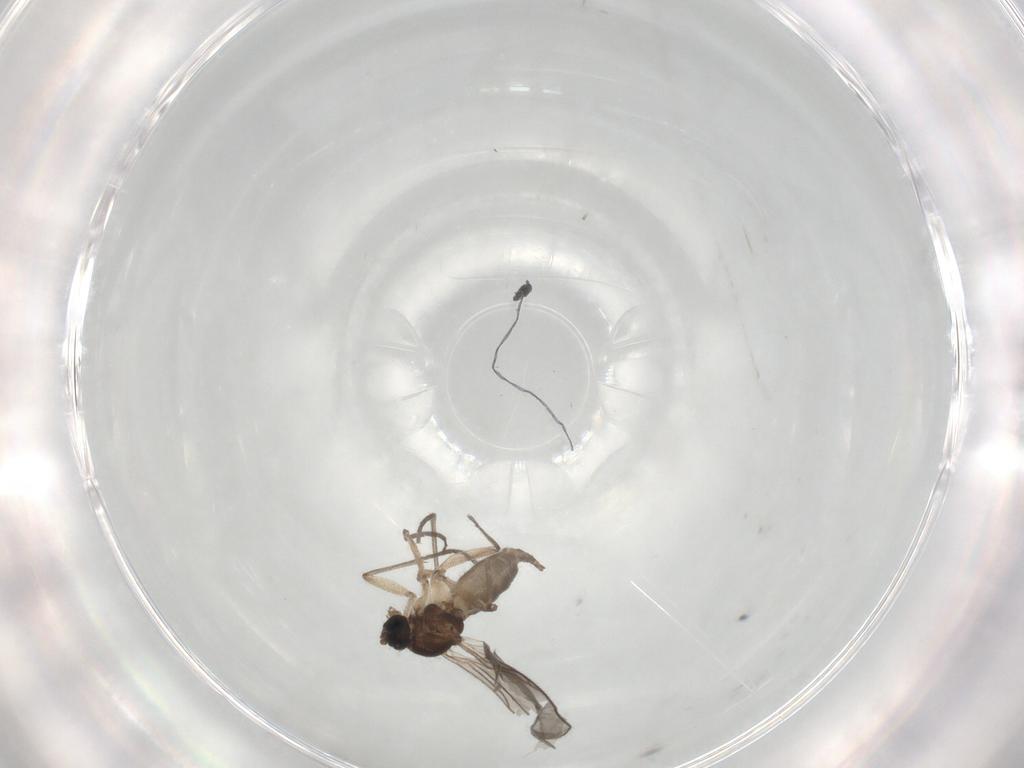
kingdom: Animalia
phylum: Arthropoda
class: Insecta
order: Diptera
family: Sciaridae
